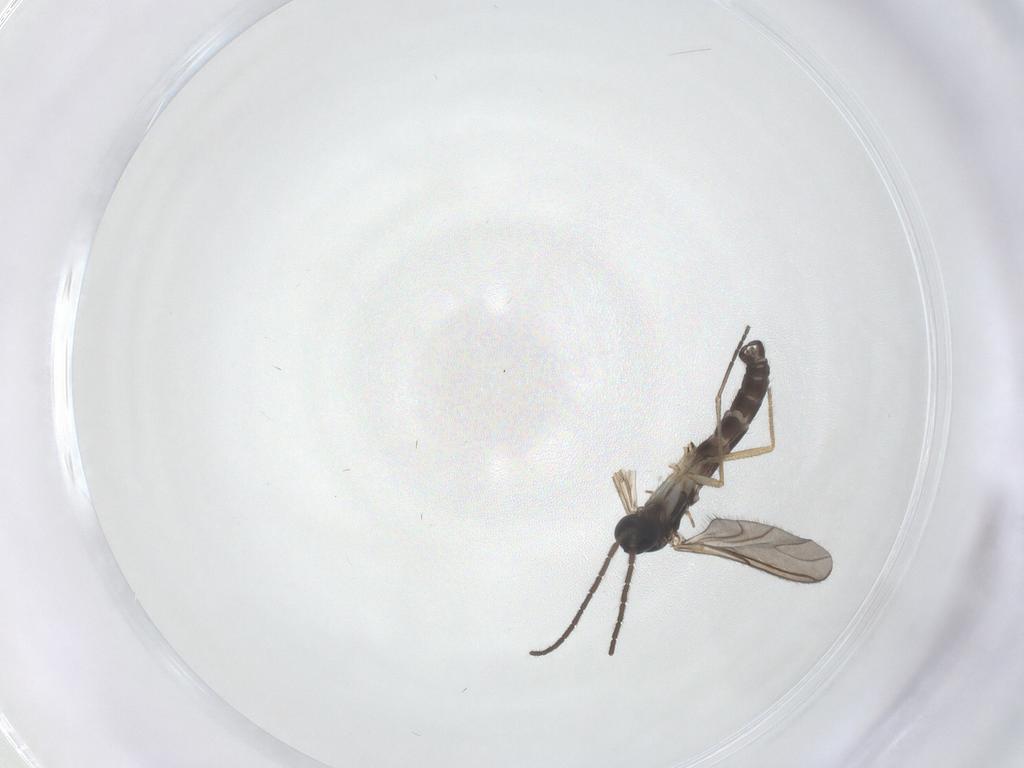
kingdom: Animalia
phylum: Arthropoda
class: Insecta
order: Diptera
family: Sciaridae
